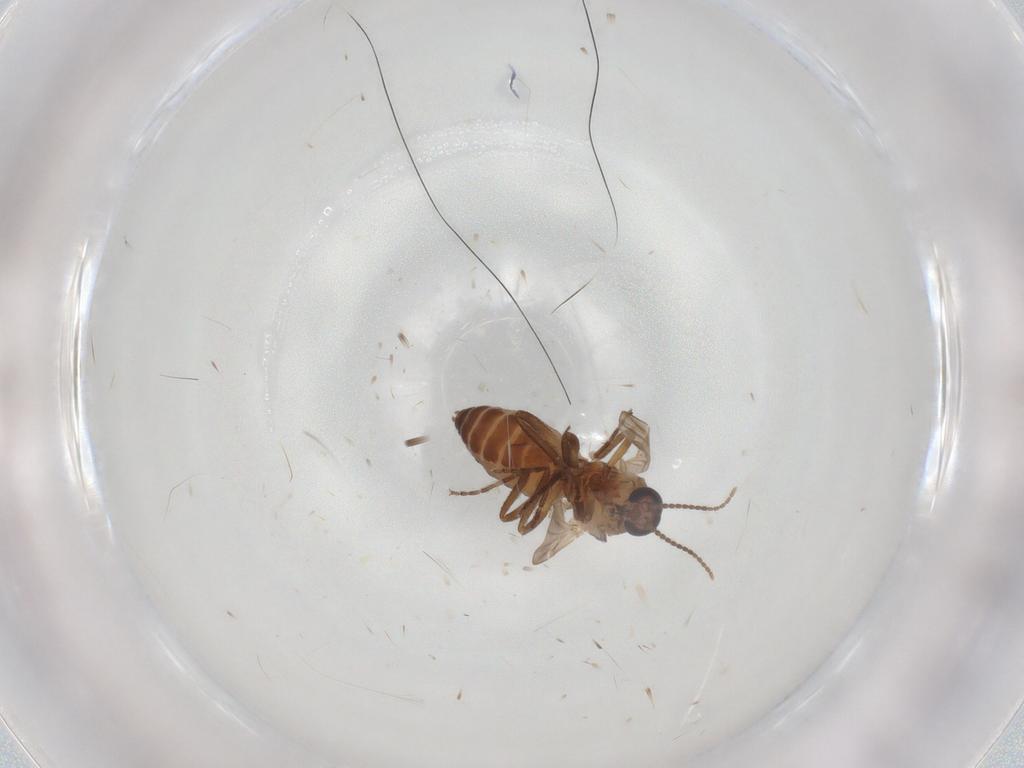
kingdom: Animalia
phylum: Arthropoda
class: Insecta
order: Diptera
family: Ceratopogonidae
